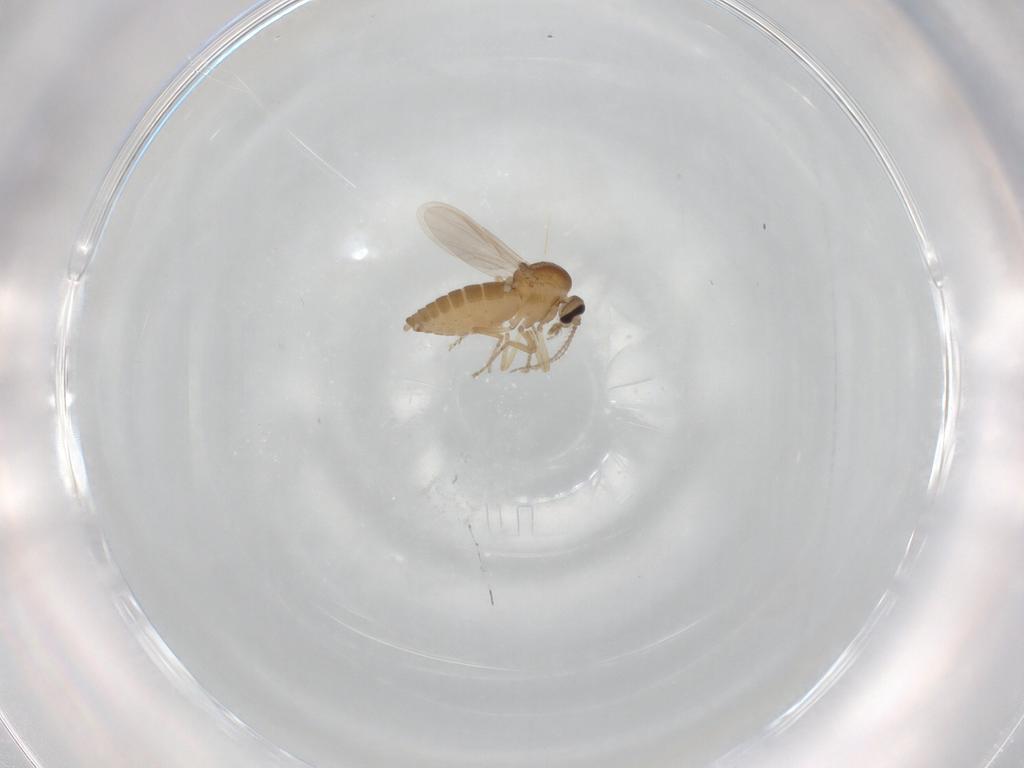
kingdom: Animalia
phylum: Arthropoda
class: Insecta
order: Diptera
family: Ceratopogonidae
